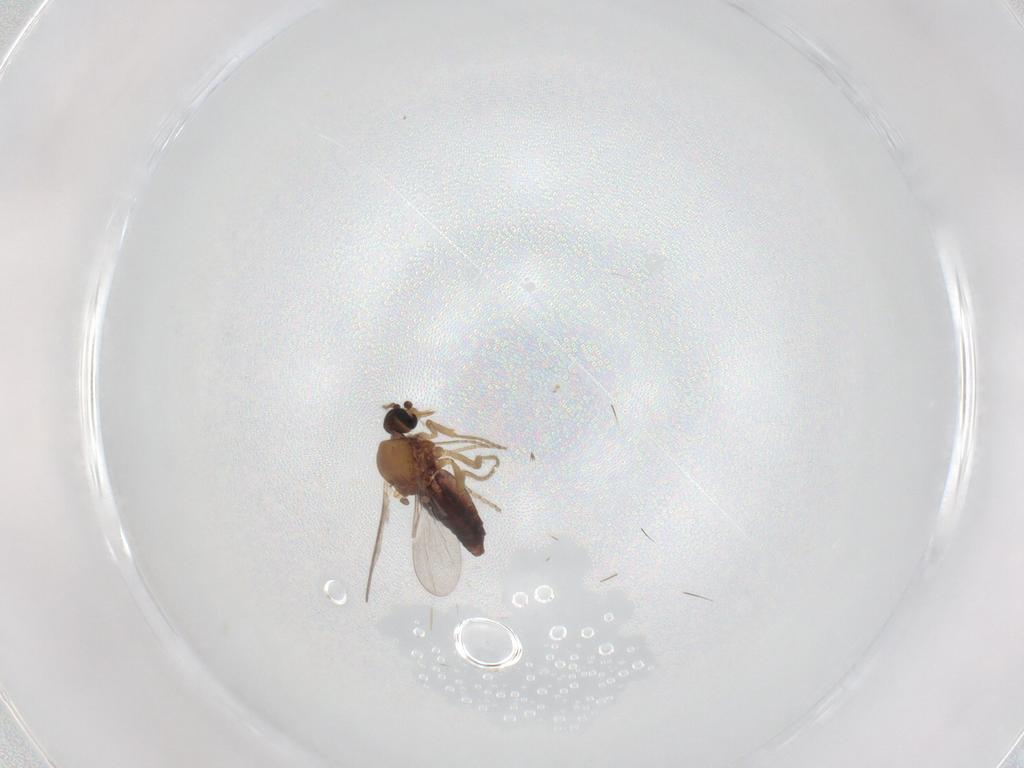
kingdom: Animalia
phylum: Arthropoda
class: Insecta
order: Diptera
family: Ceratopogonidae
